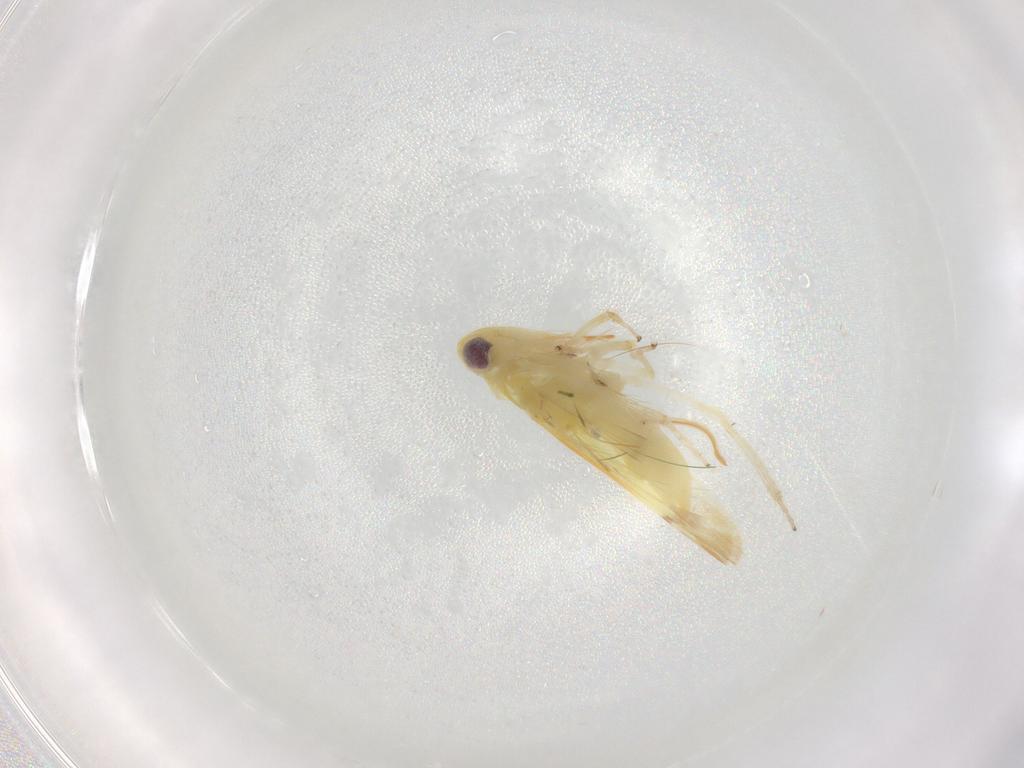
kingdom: Animalia
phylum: Arthropoda
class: Insecta
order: Hemiptera
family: Cicadellidae
